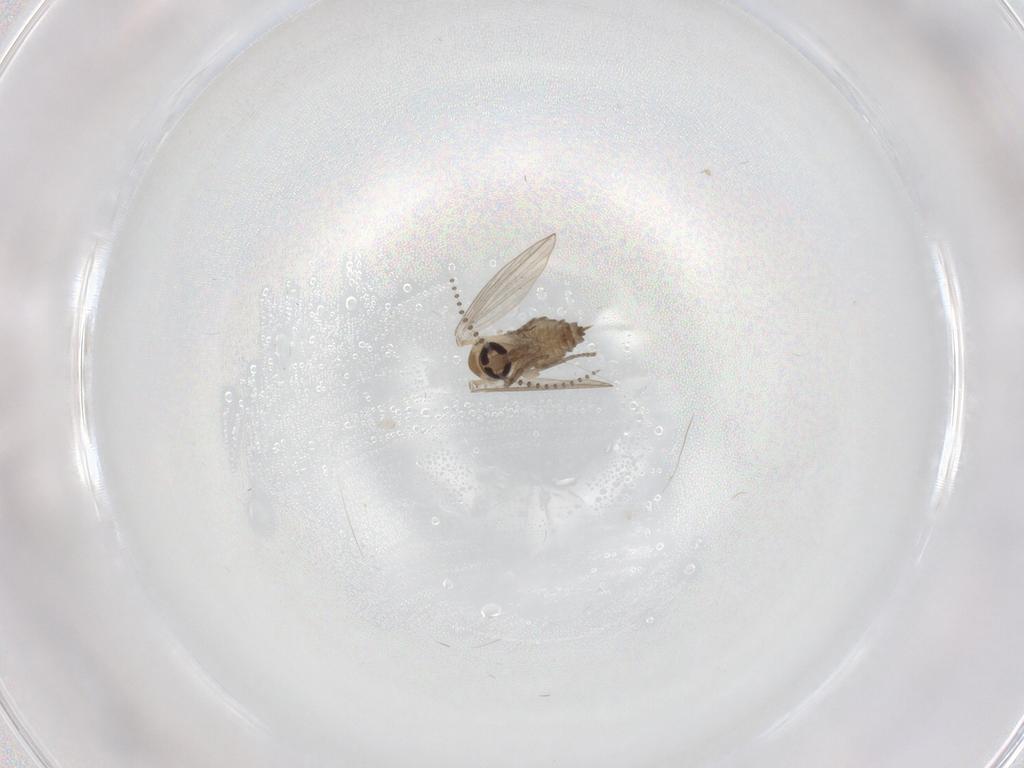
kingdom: Animalia
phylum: Arthropoda
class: Insecta
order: Diptera
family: Psychodidae
